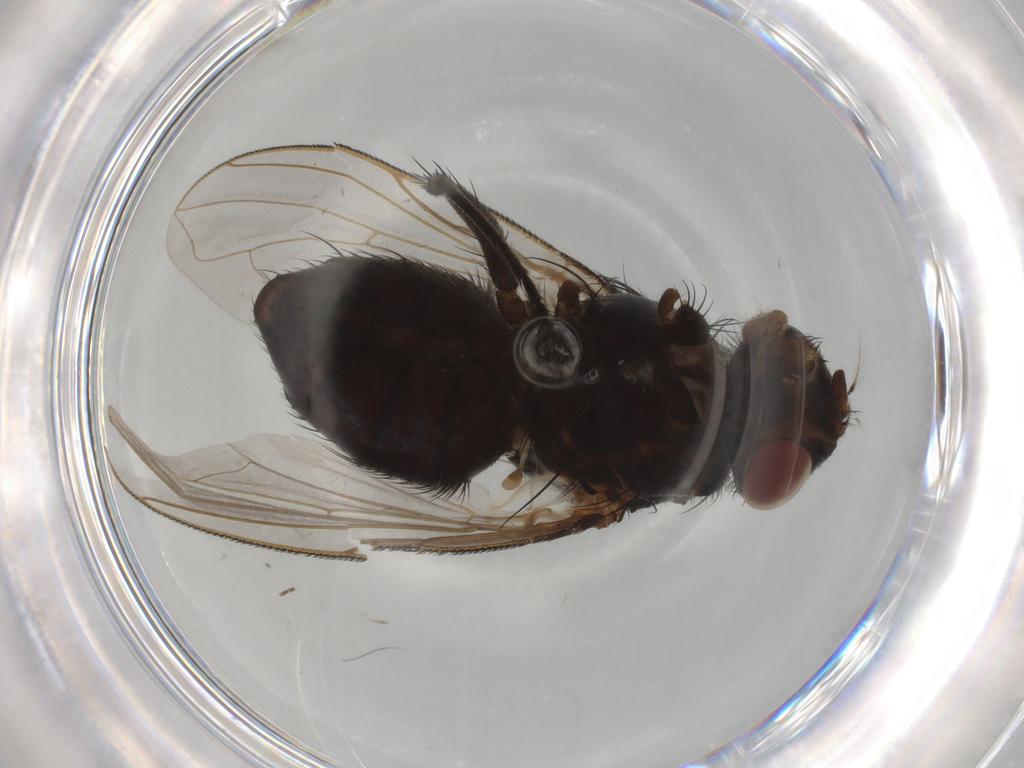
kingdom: Animalia
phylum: Arthropoda
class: Insecta
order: Diptera
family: Calliphoridae
